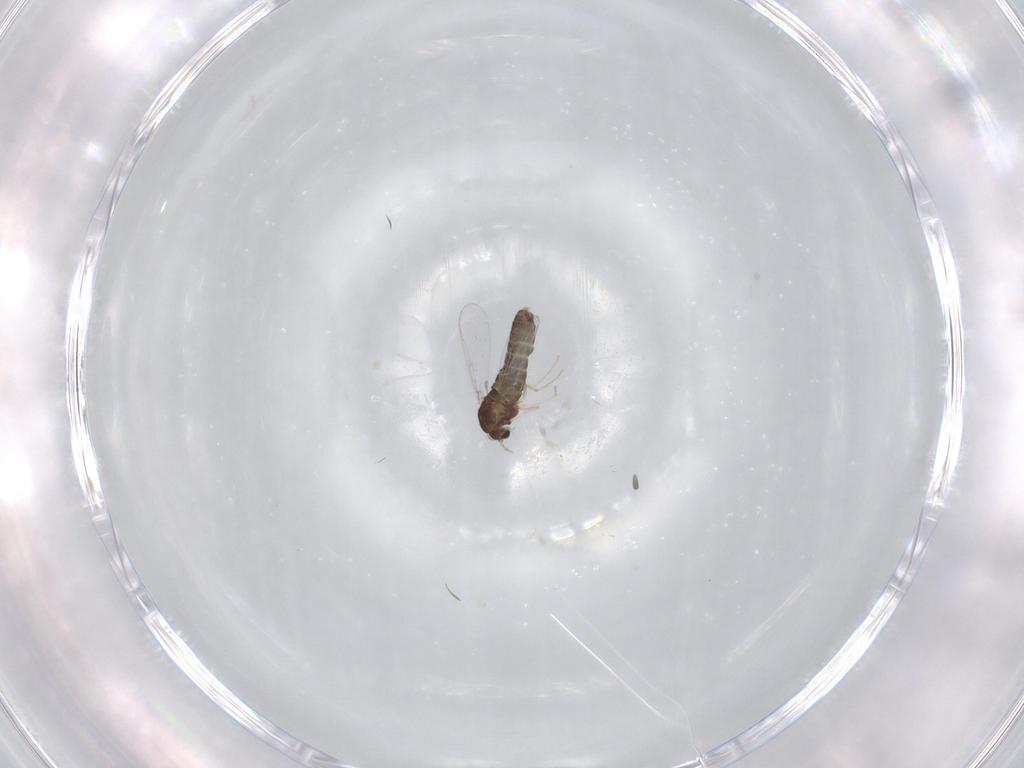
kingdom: Animalia
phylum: Arthropoda
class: Insecta
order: Diptera
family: Chironomidae
